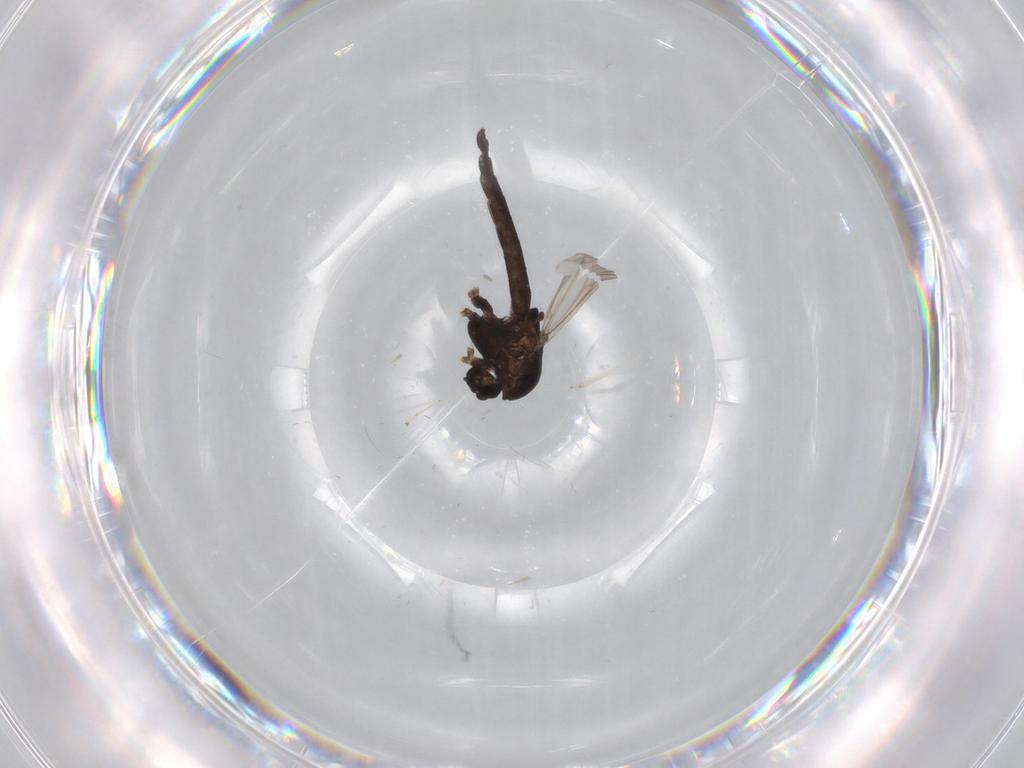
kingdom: Animalia
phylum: Arthropoda
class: Insecta
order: Diptera
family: Chironomidae
